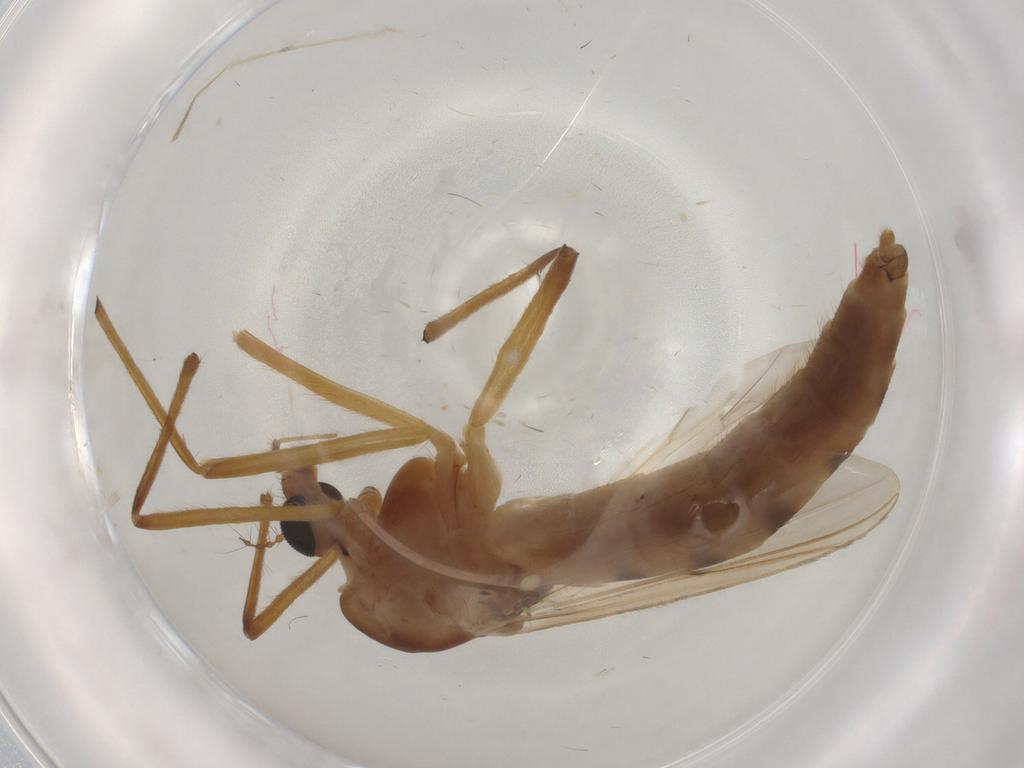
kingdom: Animalia
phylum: Arthropoda
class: Insecta
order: Diptera
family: Chironomidae
